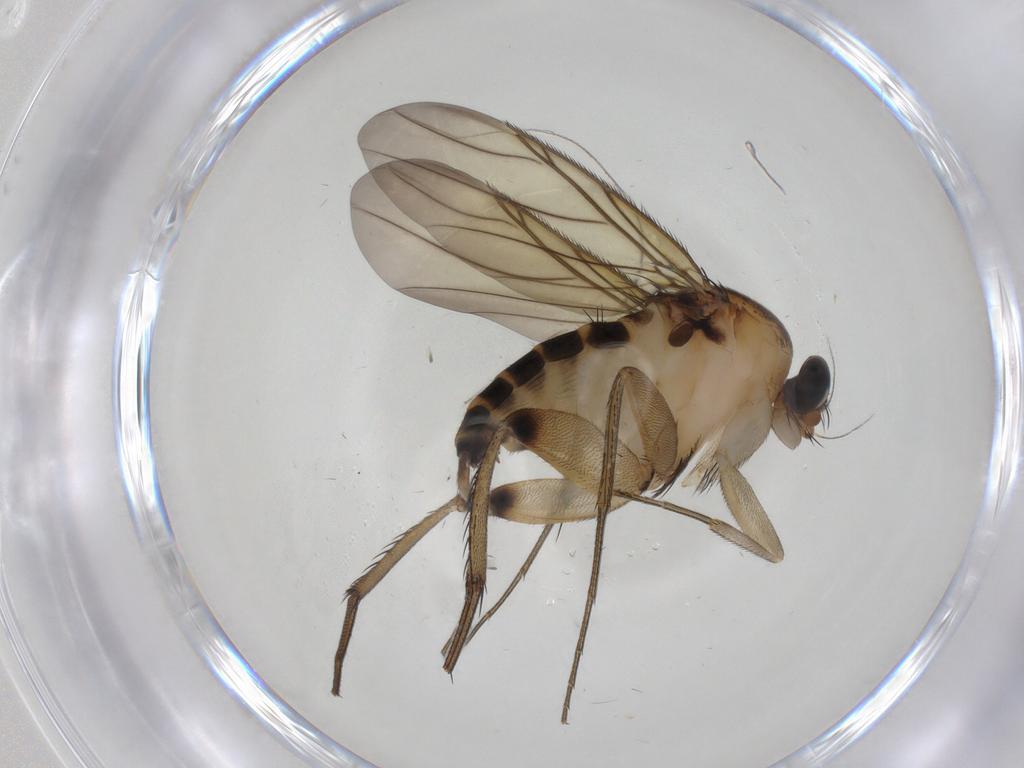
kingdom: Animalia
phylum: Arthropoda
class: Insecta
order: Diptera
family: Chironomidae
